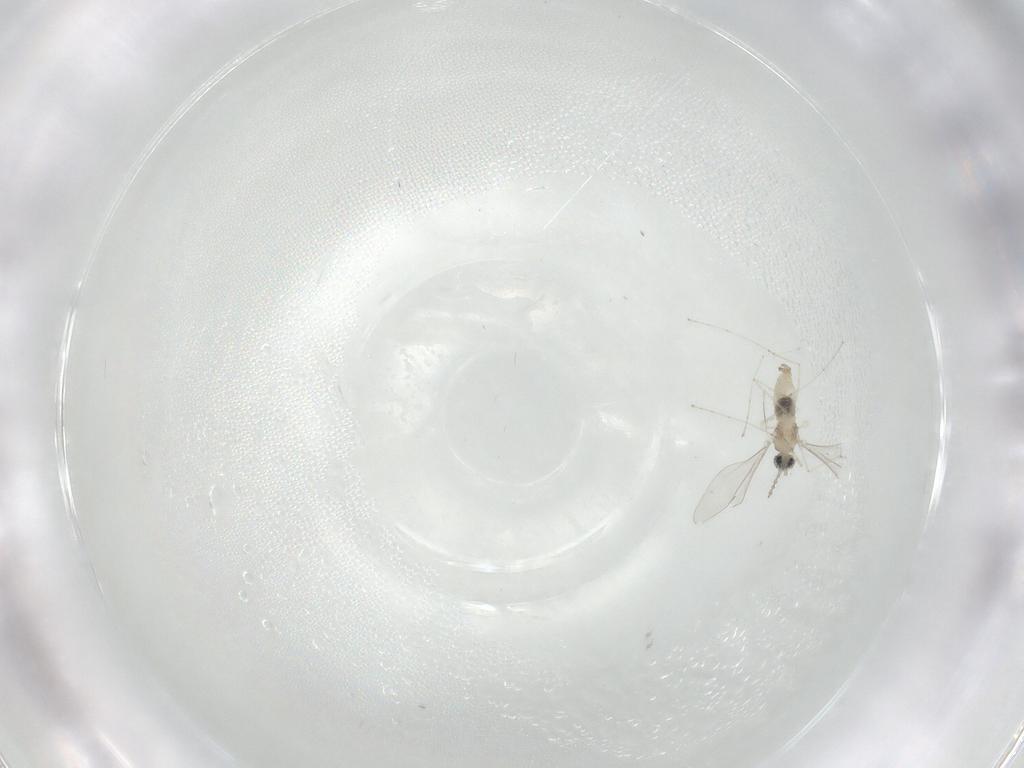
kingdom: Animalia
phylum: Arthropoda
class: Insecta
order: Diptera
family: Cecidomyiidae
